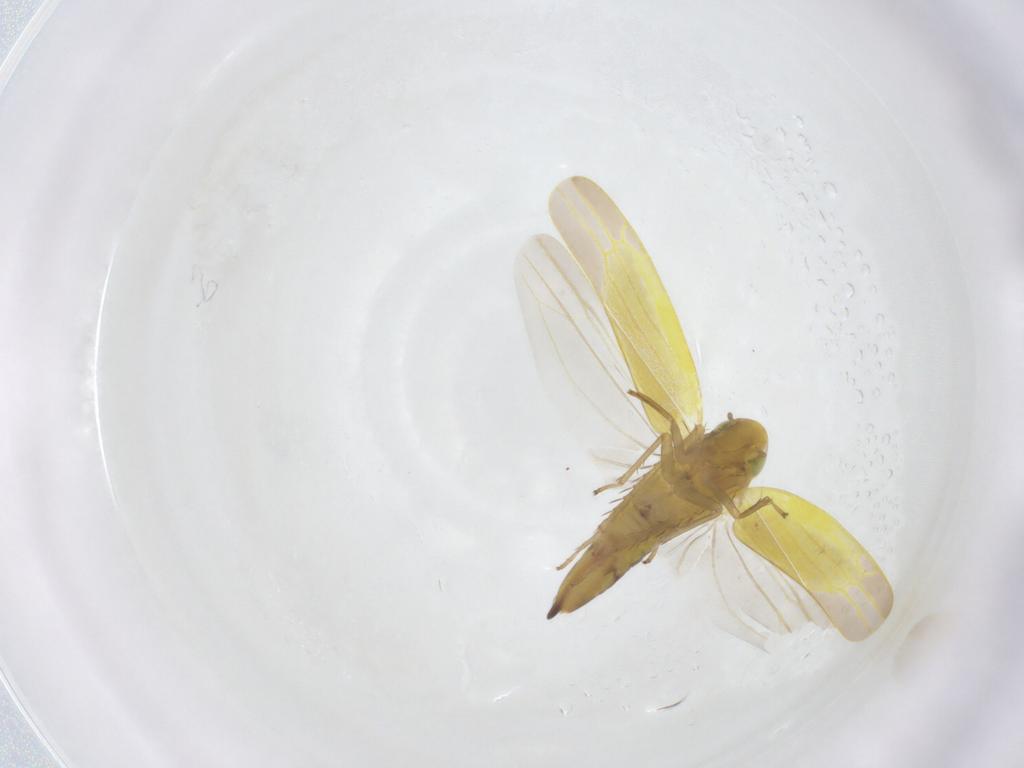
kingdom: Animalia
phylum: Arthropoda
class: Insecta
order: Hemiptera
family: Cicadellidae
